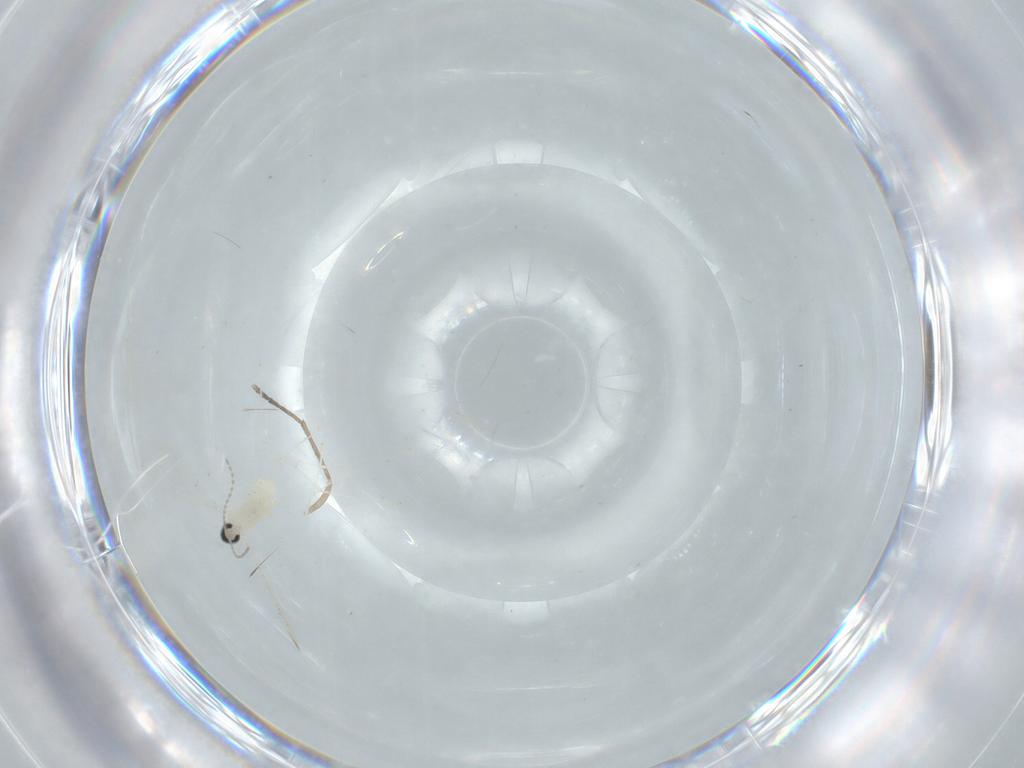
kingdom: Animalia
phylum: Arthropoda
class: Insecta
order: Diptera
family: Cecidomyiidae
